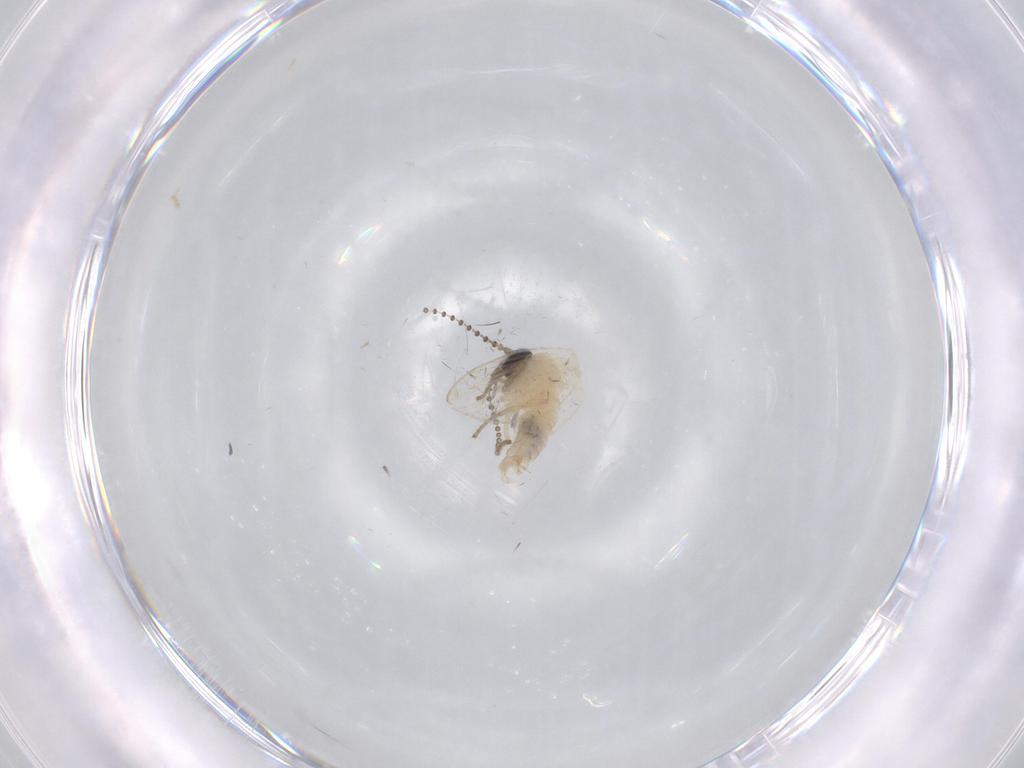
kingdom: Animalia
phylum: Arthropoda
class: Insecta
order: Diptera
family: Psychodidae
